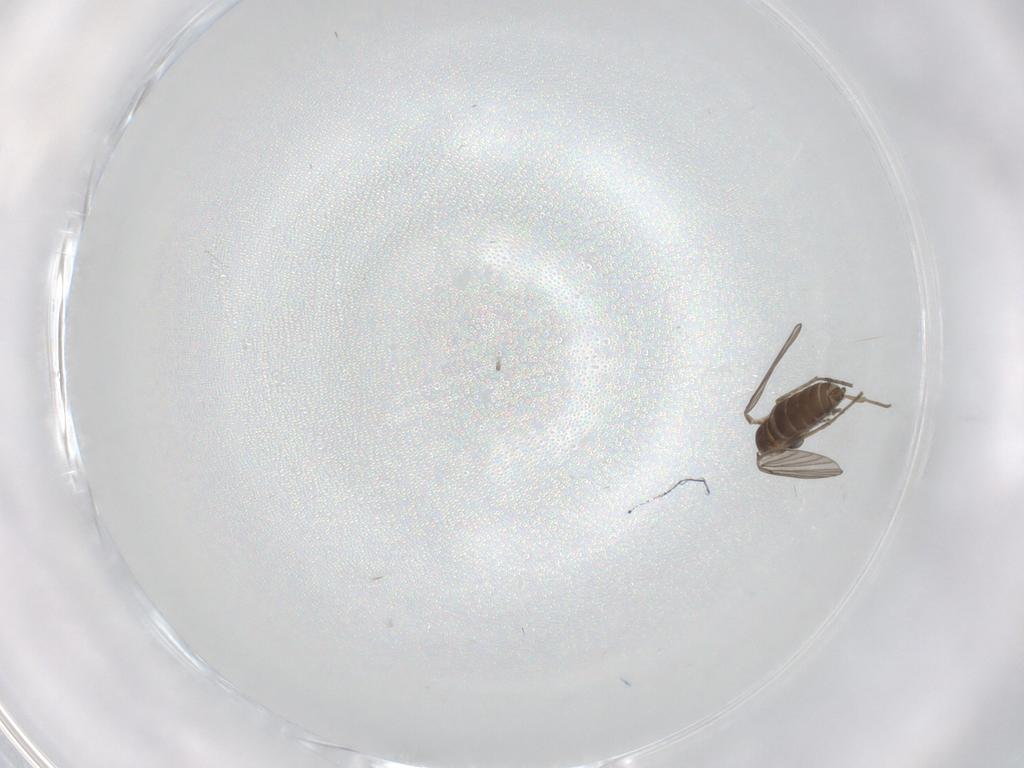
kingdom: Animalia
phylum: Arthropoda
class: Insecta
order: Diptera
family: Psychodidae
